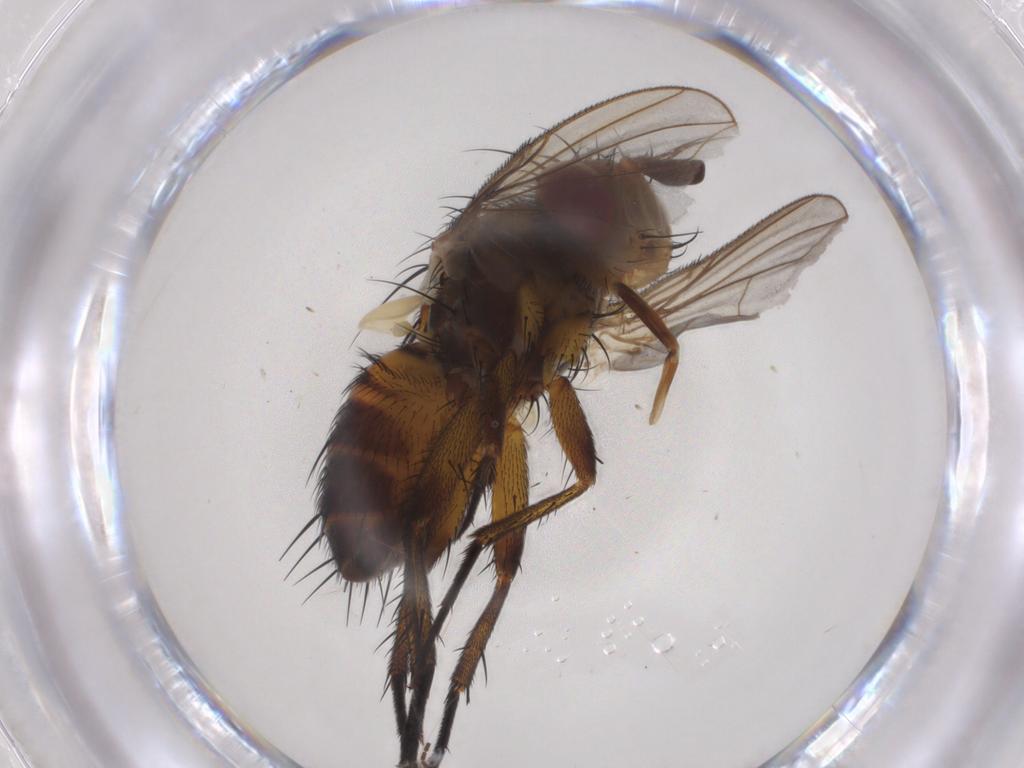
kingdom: Animalia
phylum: Arthropoda
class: Insecta
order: Diptera
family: Tachinidae
